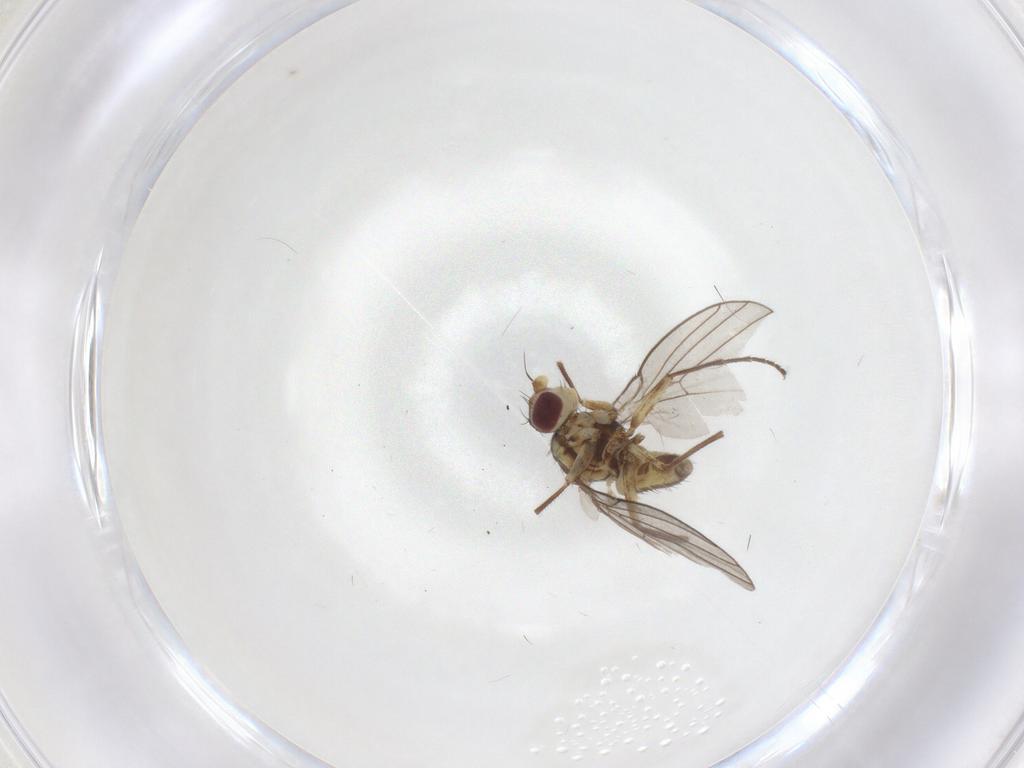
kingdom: Animalia
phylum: Arthropoda
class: Insecta
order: Diptera
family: Agromyzidae
